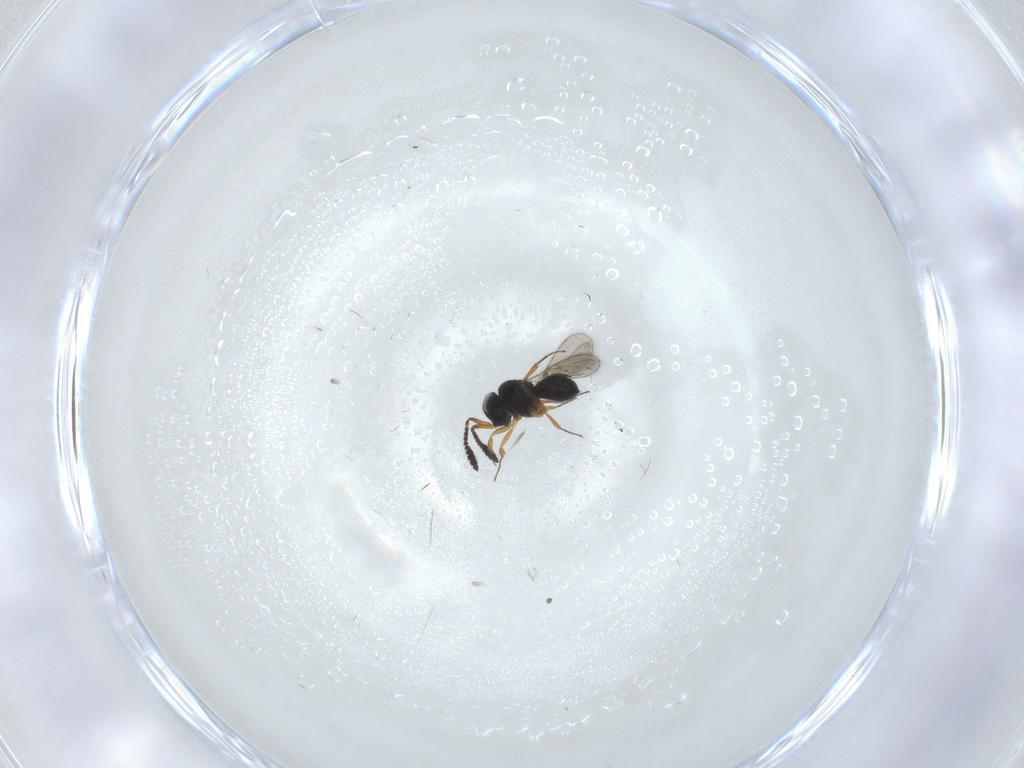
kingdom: Animalia
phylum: Arthropoda
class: Insecta
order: Hymenoptera
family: Scelionidae
